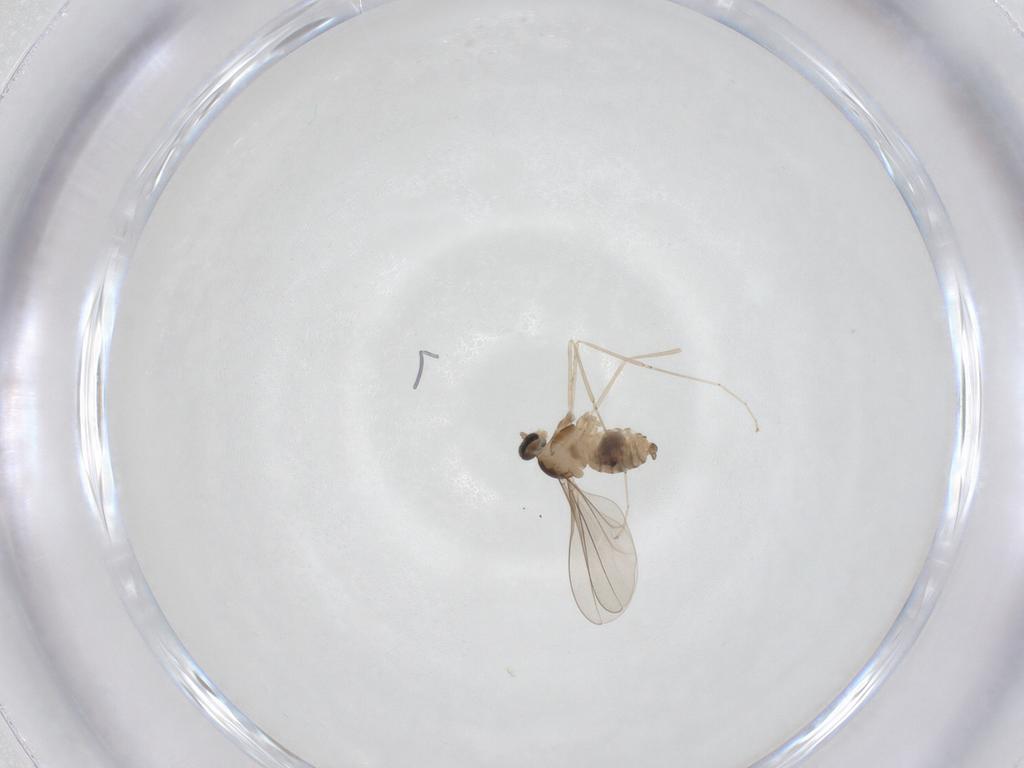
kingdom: Animalia
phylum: Arthropoda
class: Insecta
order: Diptera
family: Cecidomyiidae
